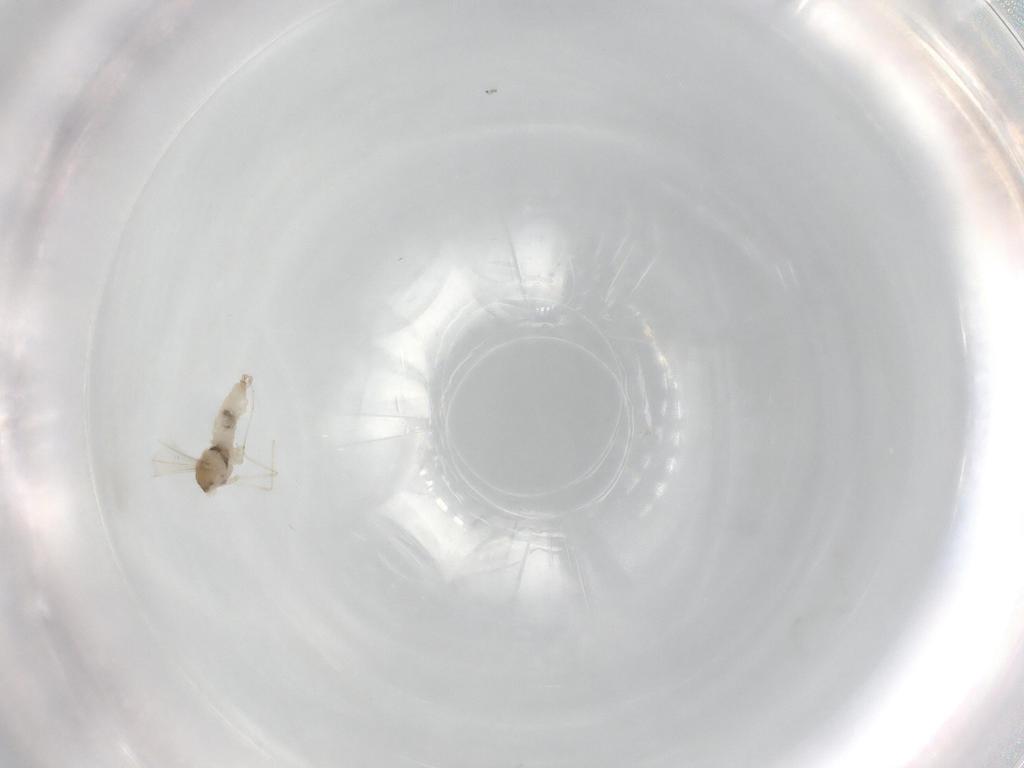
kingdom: Animalia
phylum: Arthropoda
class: Insecta
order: Diptera
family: Cecidomyiidae
